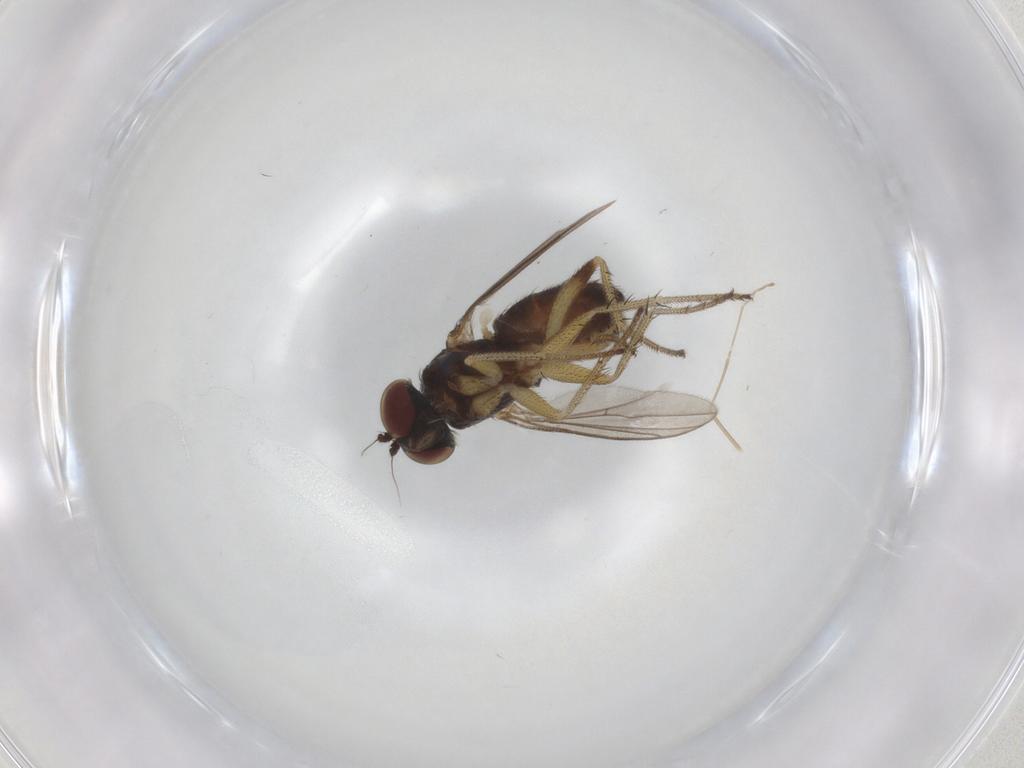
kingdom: Animalia
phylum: Arthropoda
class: Insecta
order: Diptera
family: Dolichopodidae
